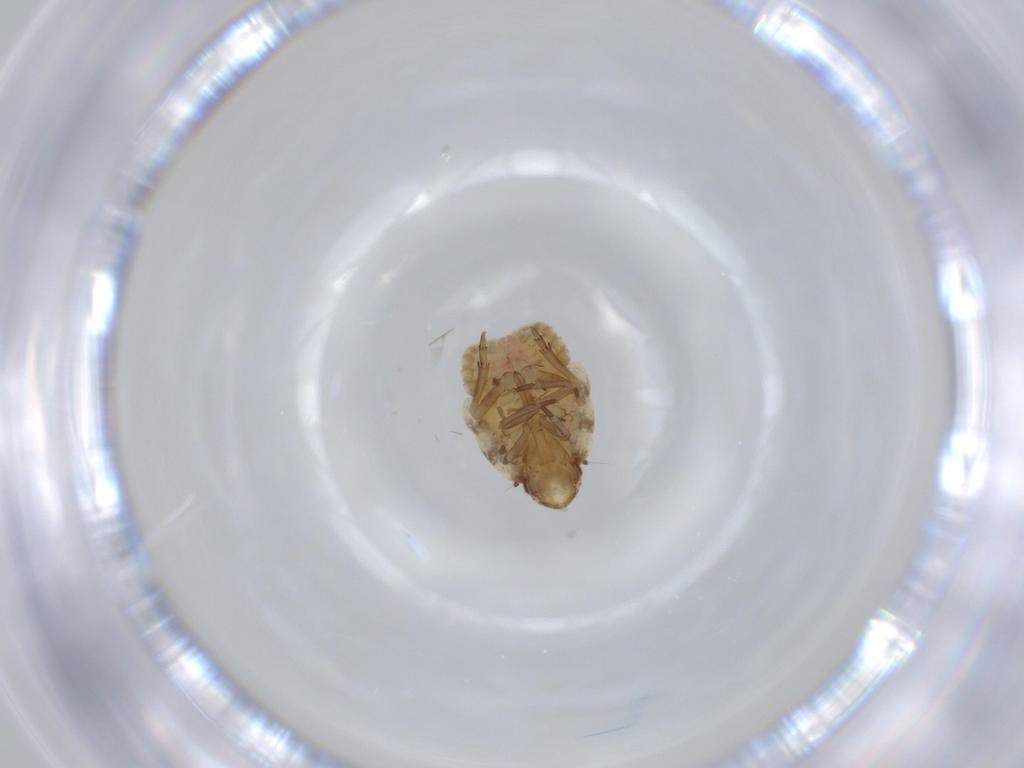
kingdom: Animalia
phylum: Arthropoda
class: Insecta
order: Hemiptera
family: Flatidae
